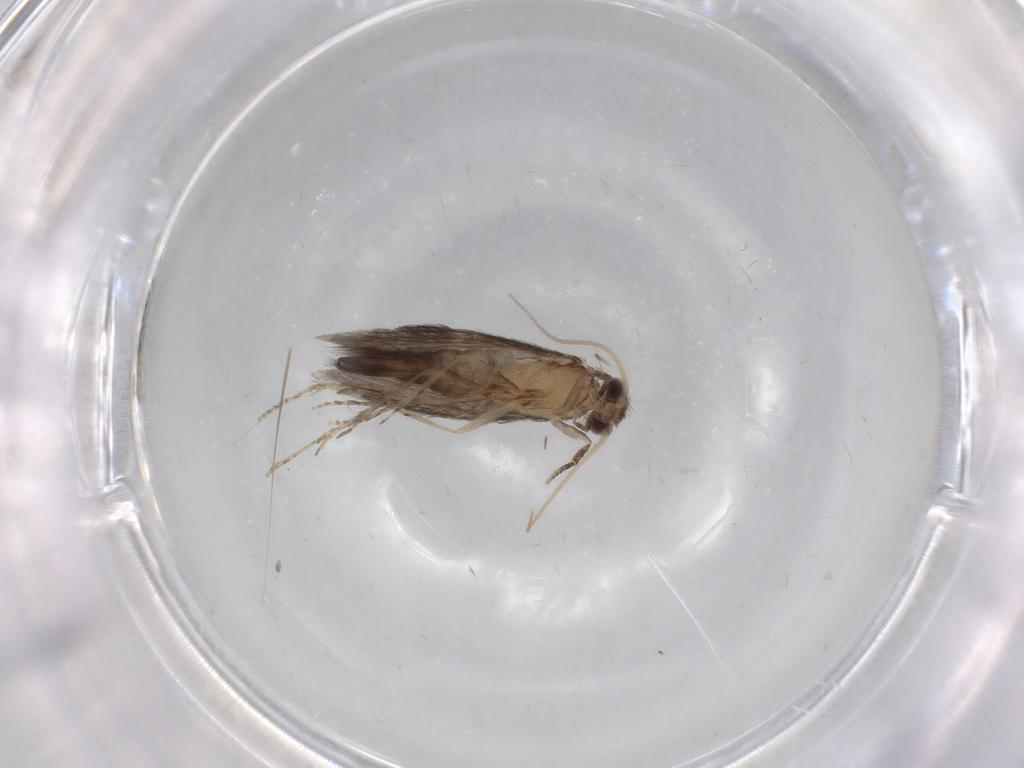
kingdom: Animalia
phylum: Arthropoda
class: Insecta
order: Trichoptera
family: Hydroptilidae
